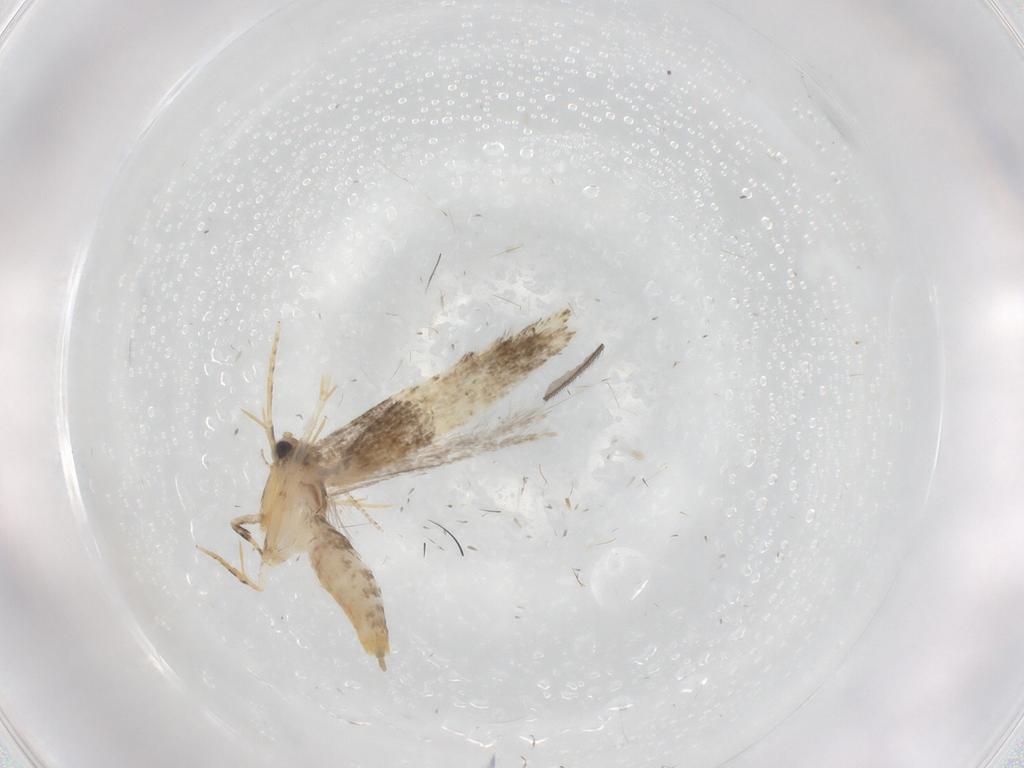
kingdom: Animalia
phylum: Arthropoda
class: Insecta
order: Lepidoptera
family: Tineidae
